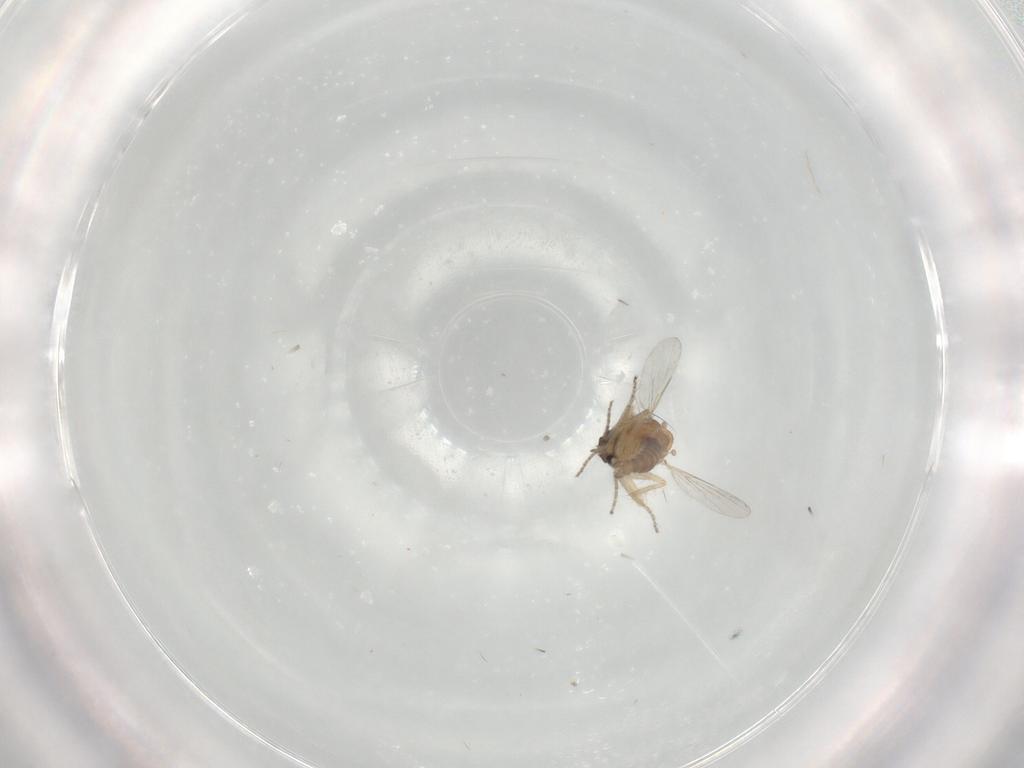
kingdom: Animalia
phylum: Arthropoda
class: Insecta
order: Diptera
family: Ceratopogonidae
